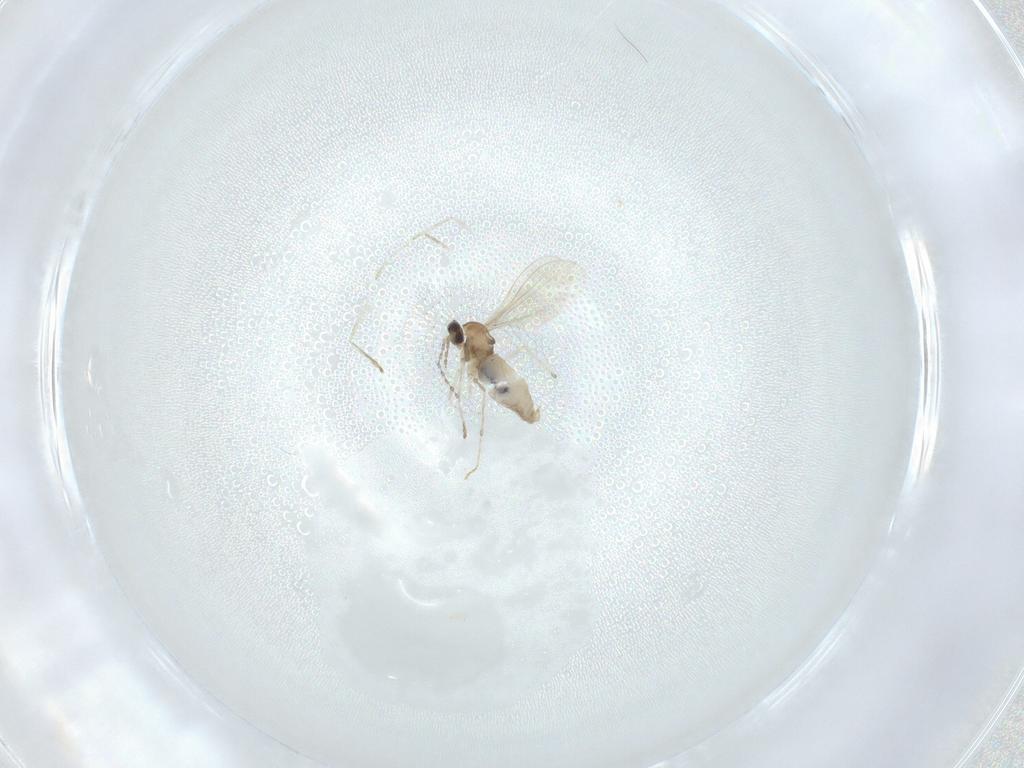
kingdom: Animalia
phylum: Arthropoda
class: Insecta
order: Diptera
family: Cecidomyiidae
